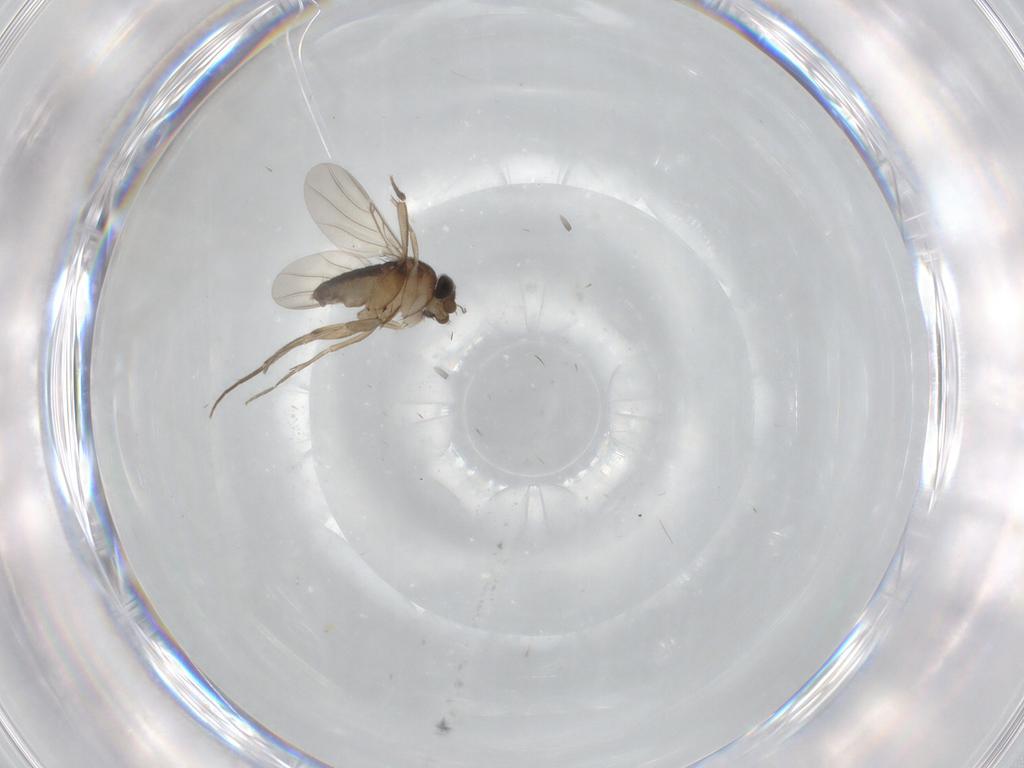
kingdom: Animalia
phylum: Arthropoda
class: Insecta
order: Diptera
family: Phoridae
